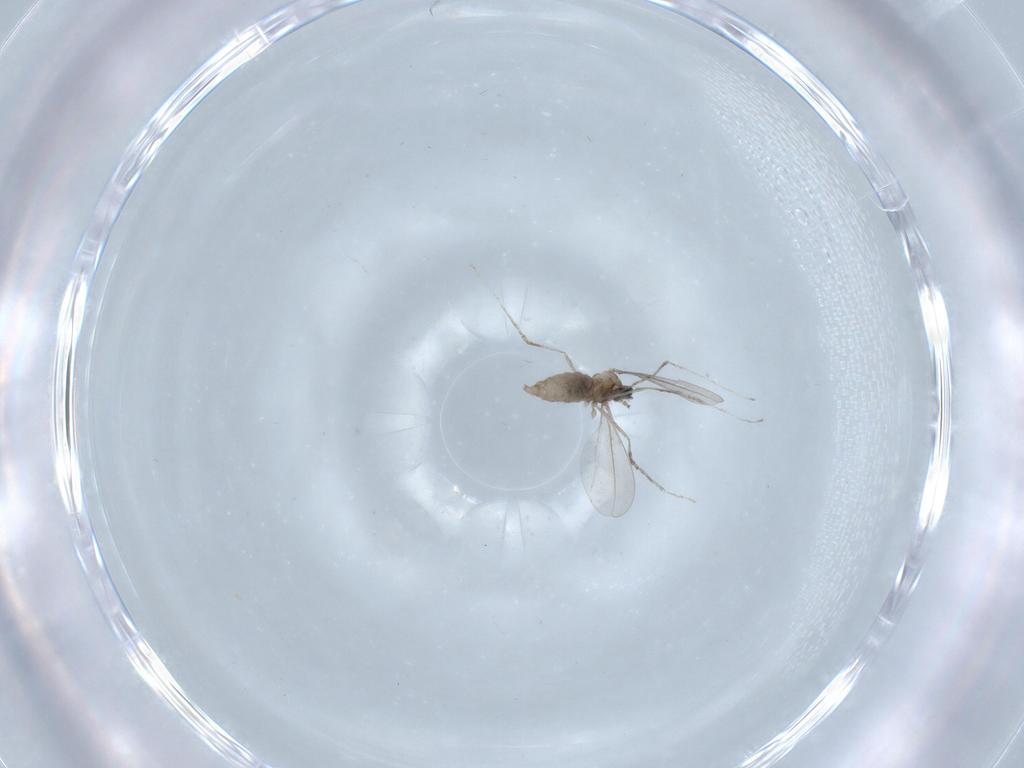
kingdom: Animalia
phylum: Arthropoda
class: Insecta
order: Diptera
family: Cecidomyiidae
